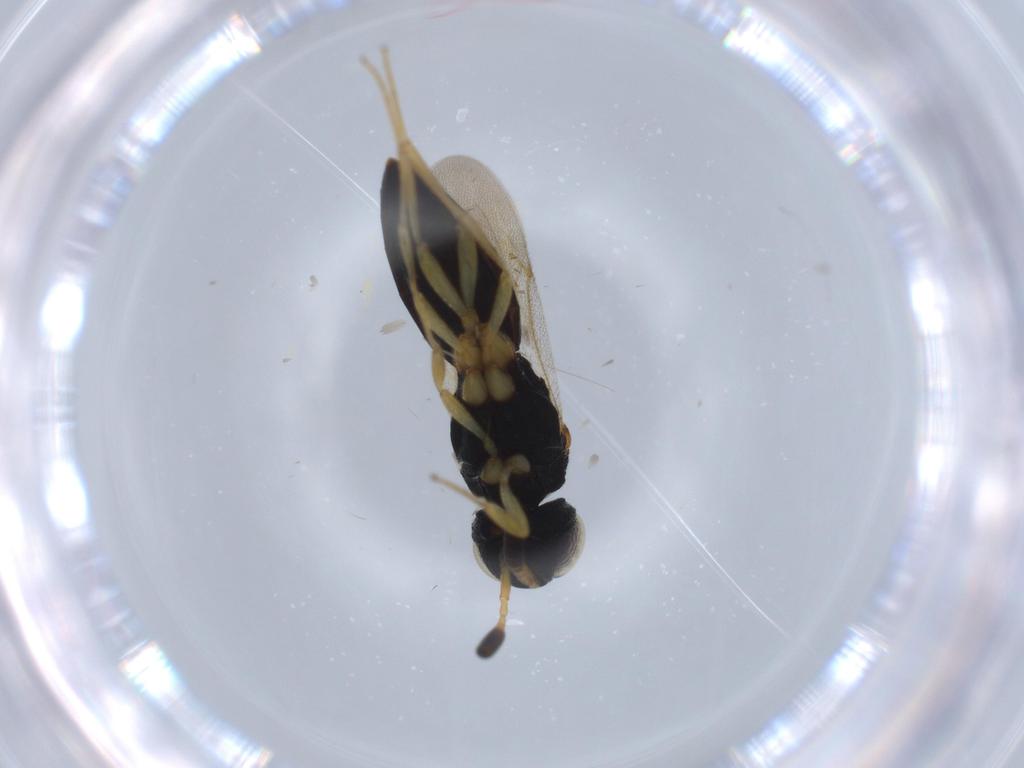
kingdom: Animalia
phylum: Arthropoda
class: Insecta
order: Hymenoptera
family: Scelionidae
